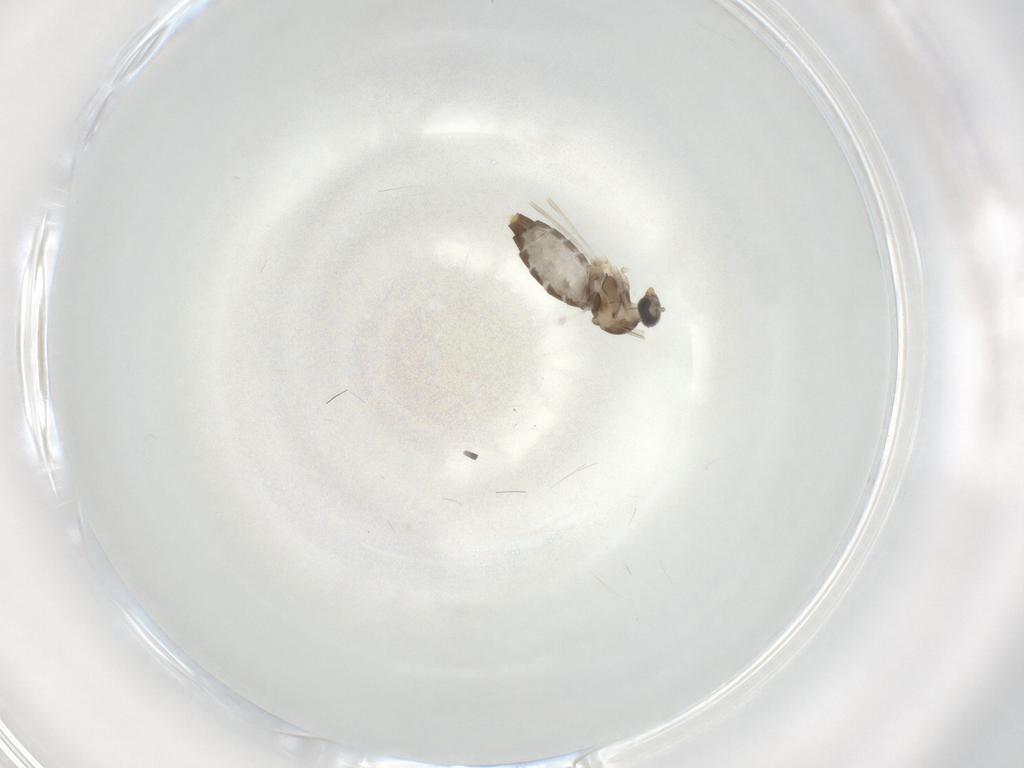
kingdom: Animalia
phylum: Arthropoda
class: Insecta
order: Diptera
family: Cecidomyiidae
